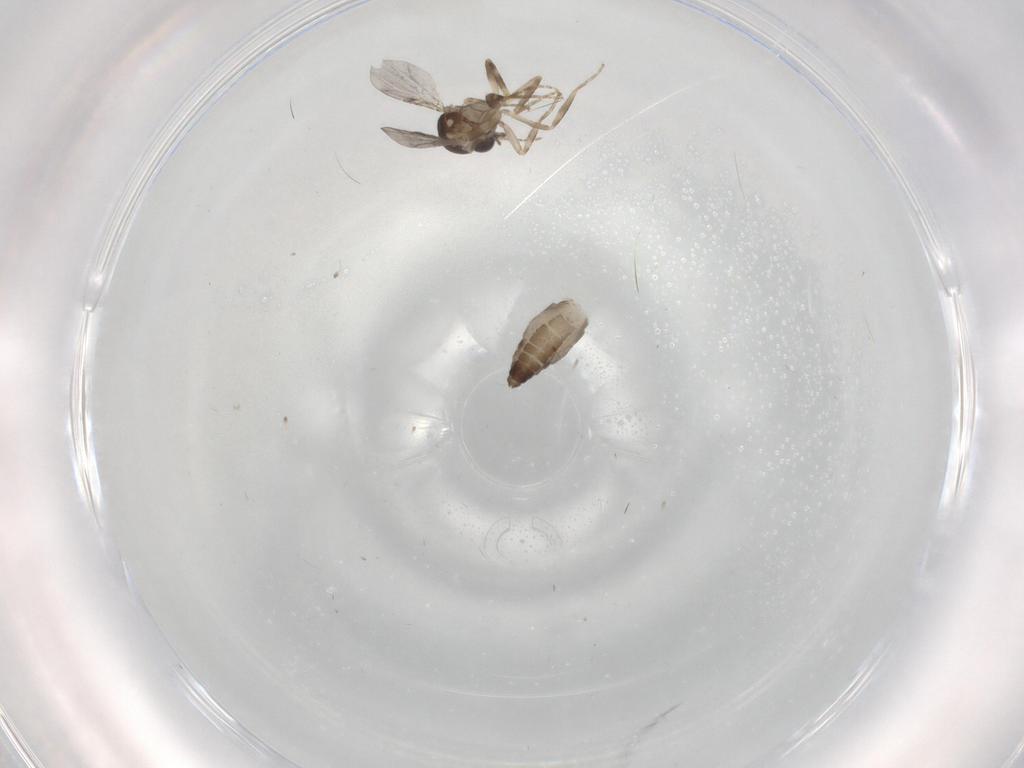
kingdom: Animalia
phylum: Arthropoda
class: Insecta
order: Diptera
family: Ceratopogonidae
